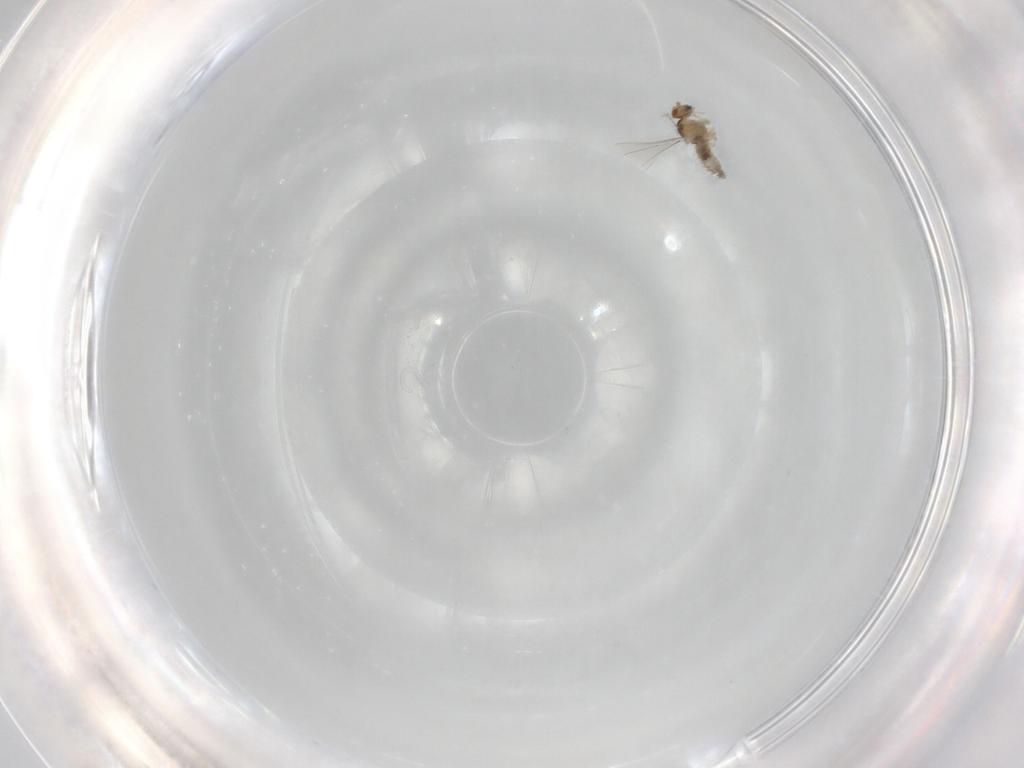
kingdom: Animalia
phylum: Arthropoda
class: Insecta
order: Diptera
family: Cecidomyiidae
